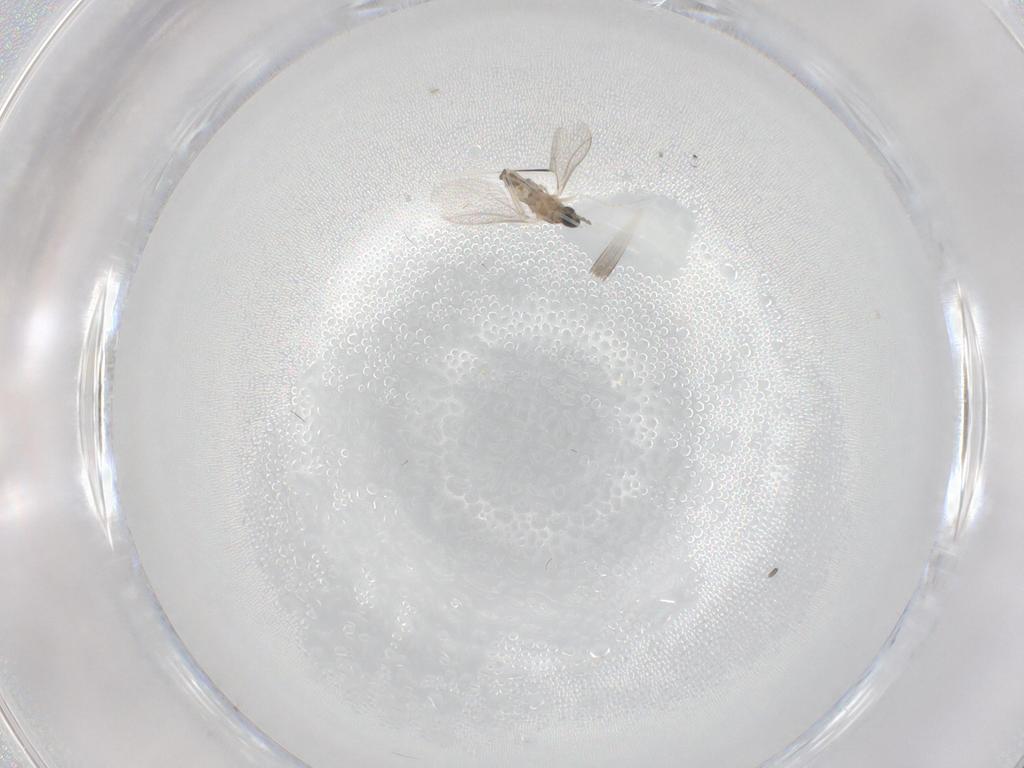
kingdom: Animalia
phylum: Arthropoda
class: Insecta
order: Diptera
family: Cecidomyiidae
